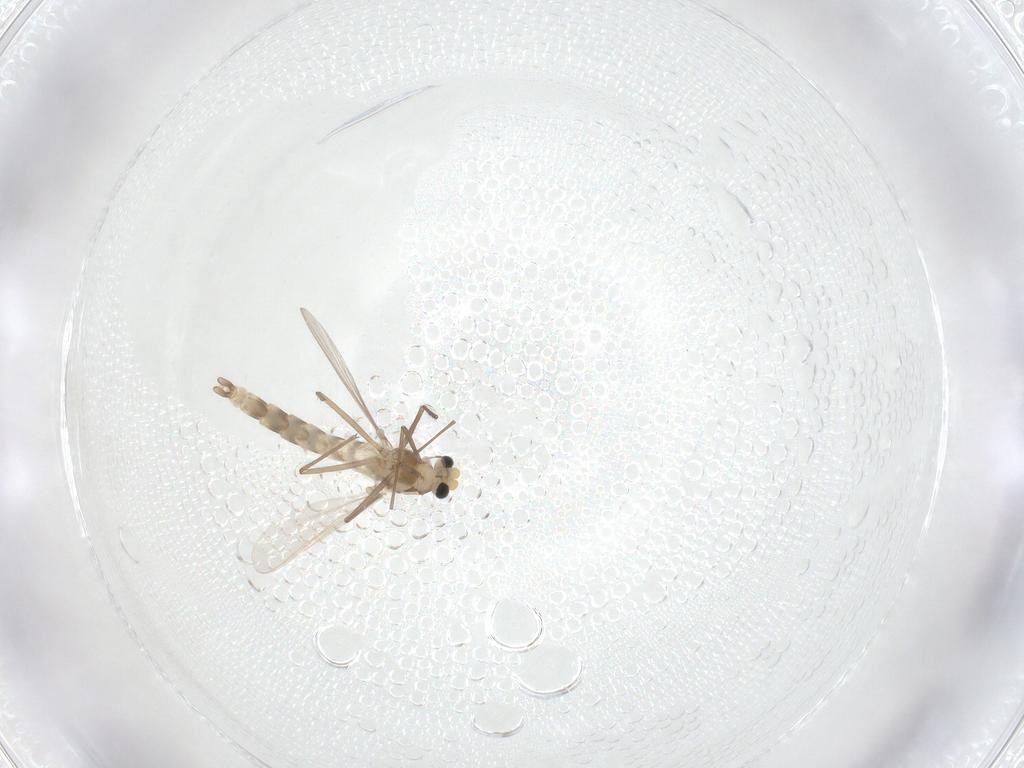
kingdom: Animalia
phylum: Arthropoda
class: Insecta
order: Diptera
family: Chironomidae
